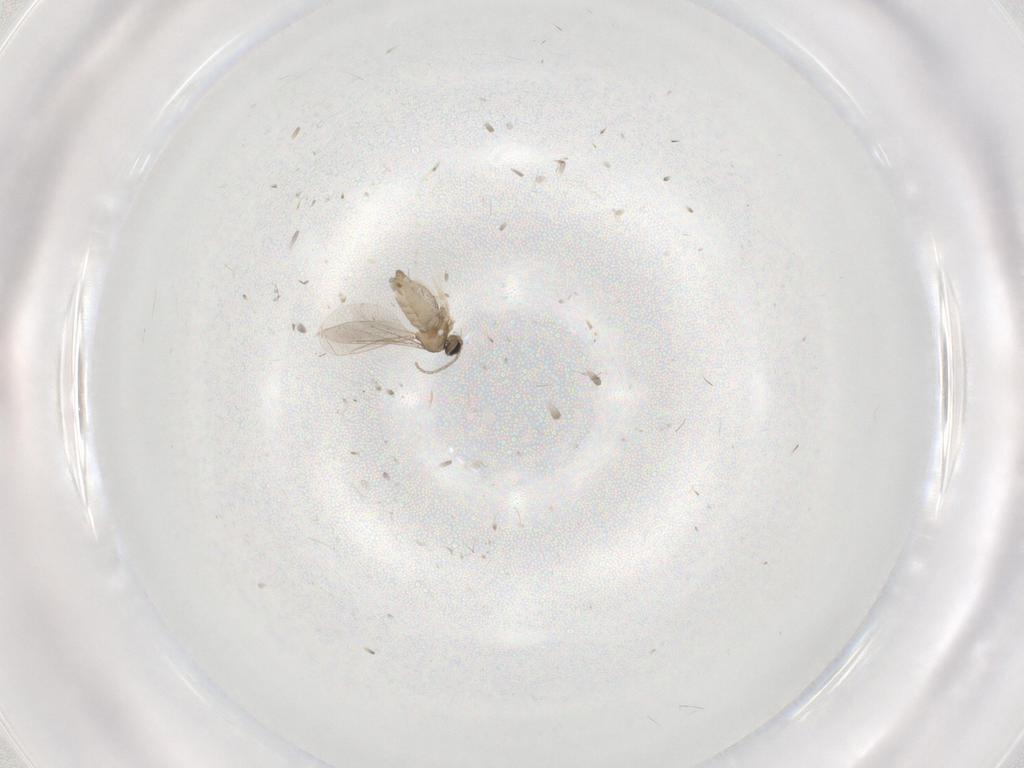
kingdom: Animalia
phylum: Arthropoda
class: Insecta
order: Diptera
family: Cecidomyiidae
